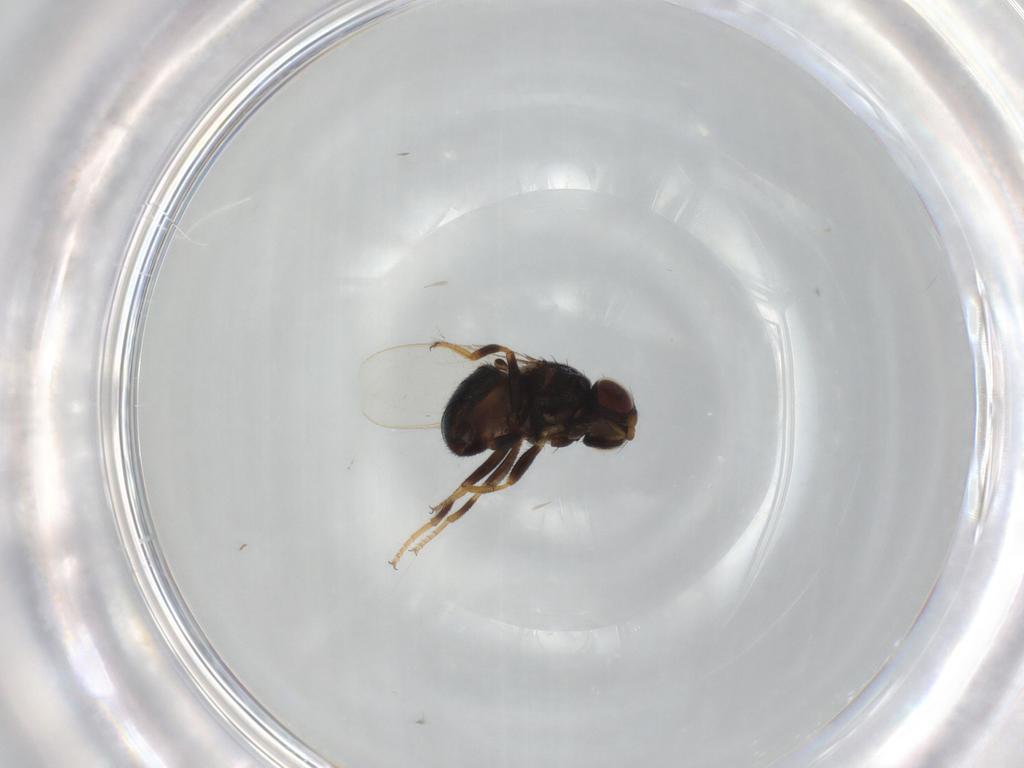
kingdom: Animalia
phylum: Arthropoda
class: Insecta
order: Diptera
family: Chloropidae
